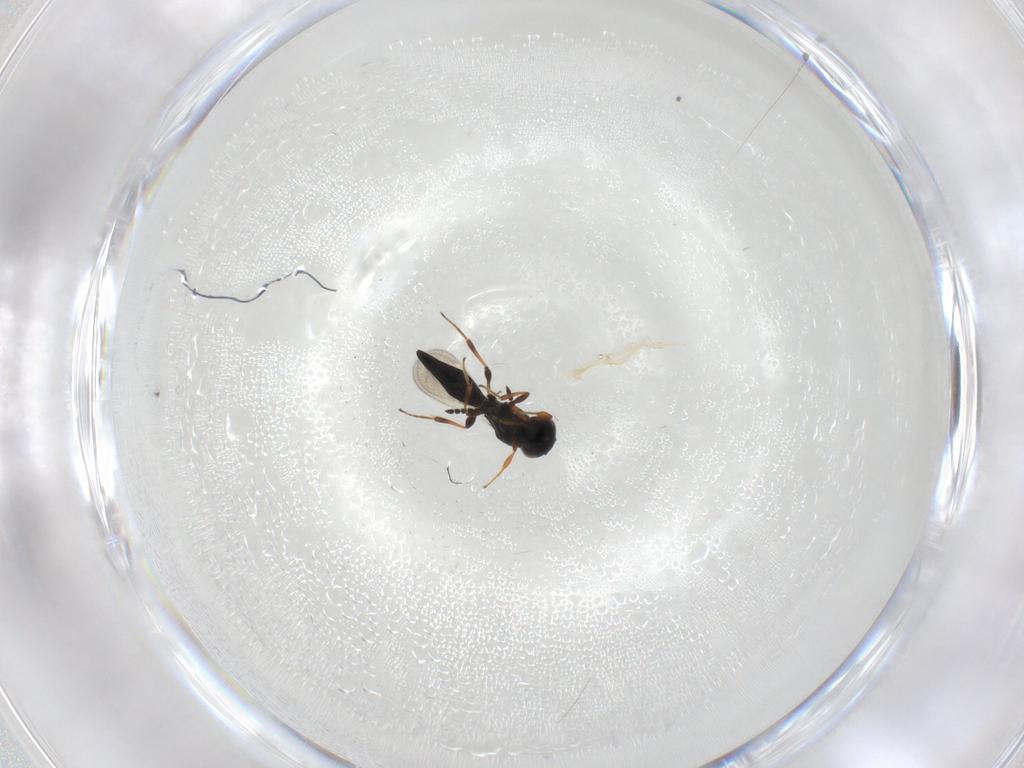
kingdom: Animalia
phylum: Arthropoda
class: Insecta
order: Hymenoptera
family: Platygastridae
